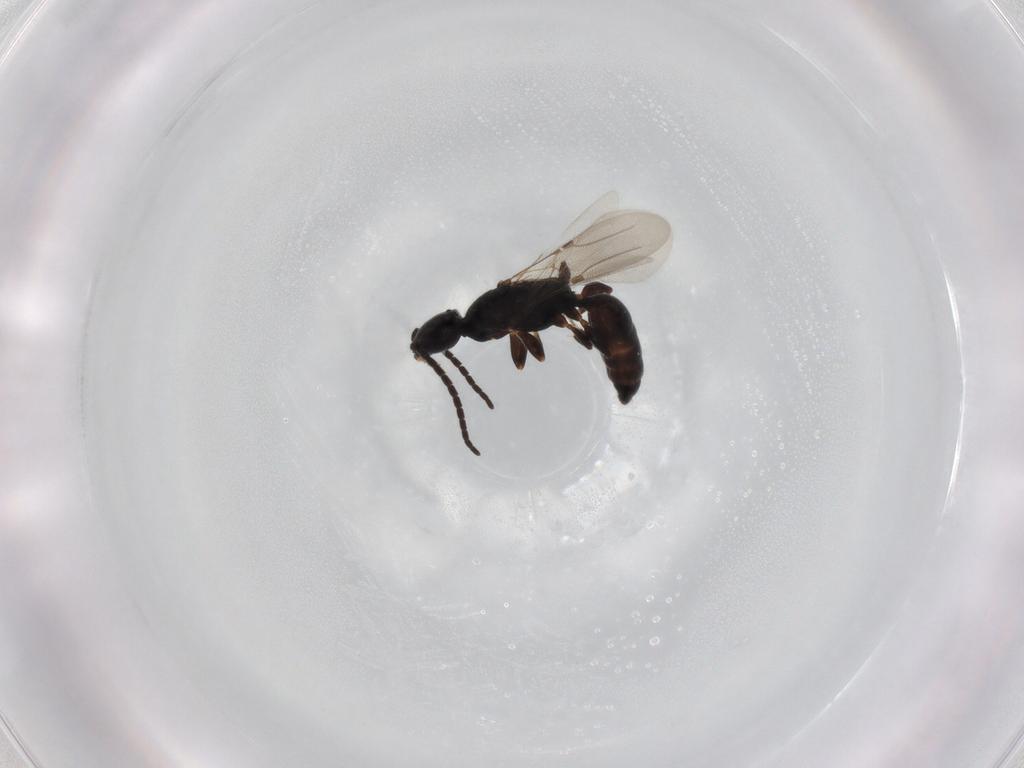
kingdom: Animalia
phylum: Arthropoda
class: Insecta
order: Hymenoptera
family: Bethylidae
